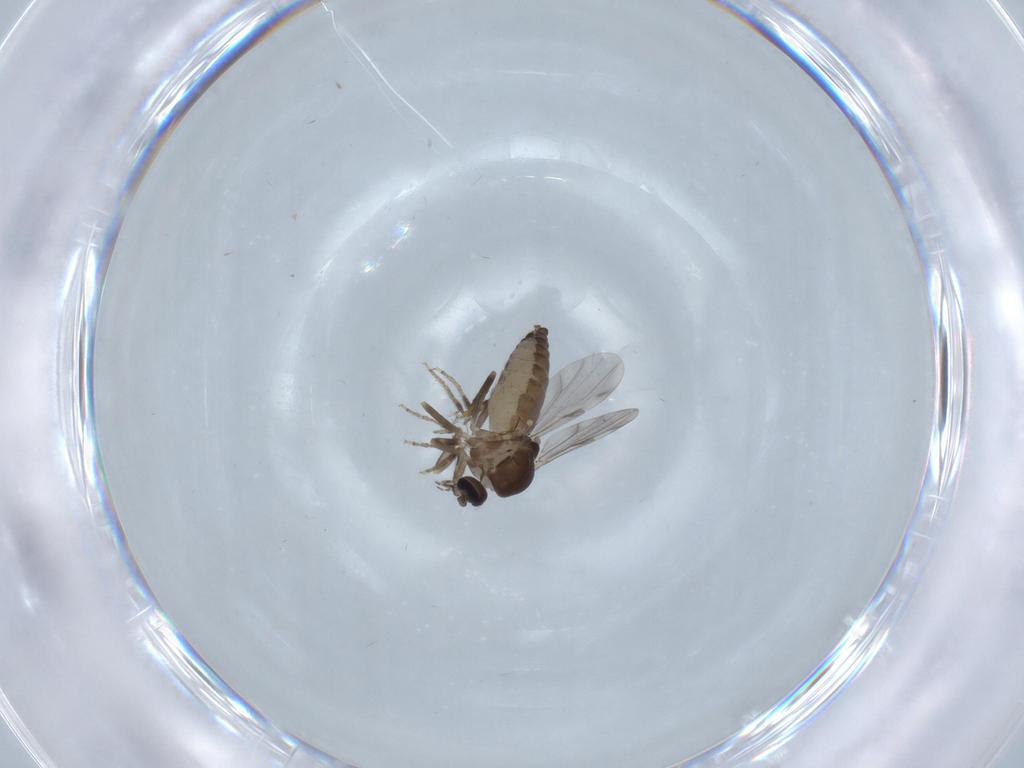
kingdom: Animalia
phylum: Arthropoda
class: Insecta
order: Diptera
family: Ceratopogonidae
